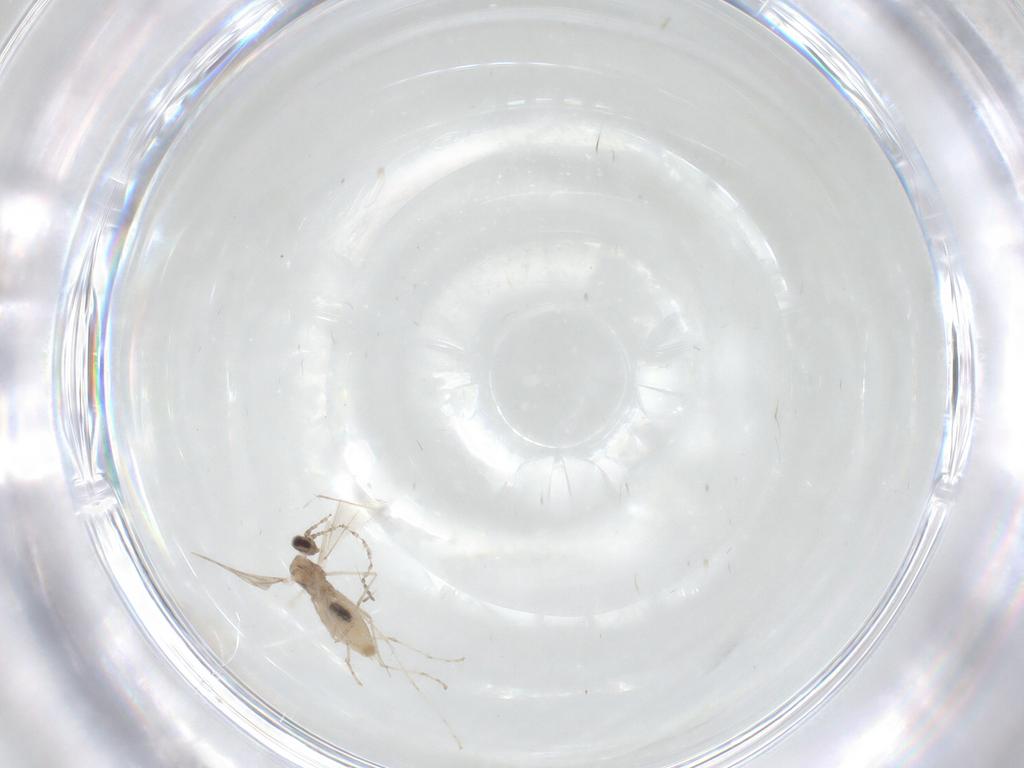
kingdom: Animalia
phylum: Arthropoda
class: Insecta
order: Diptera
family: Cecidomyiidae
